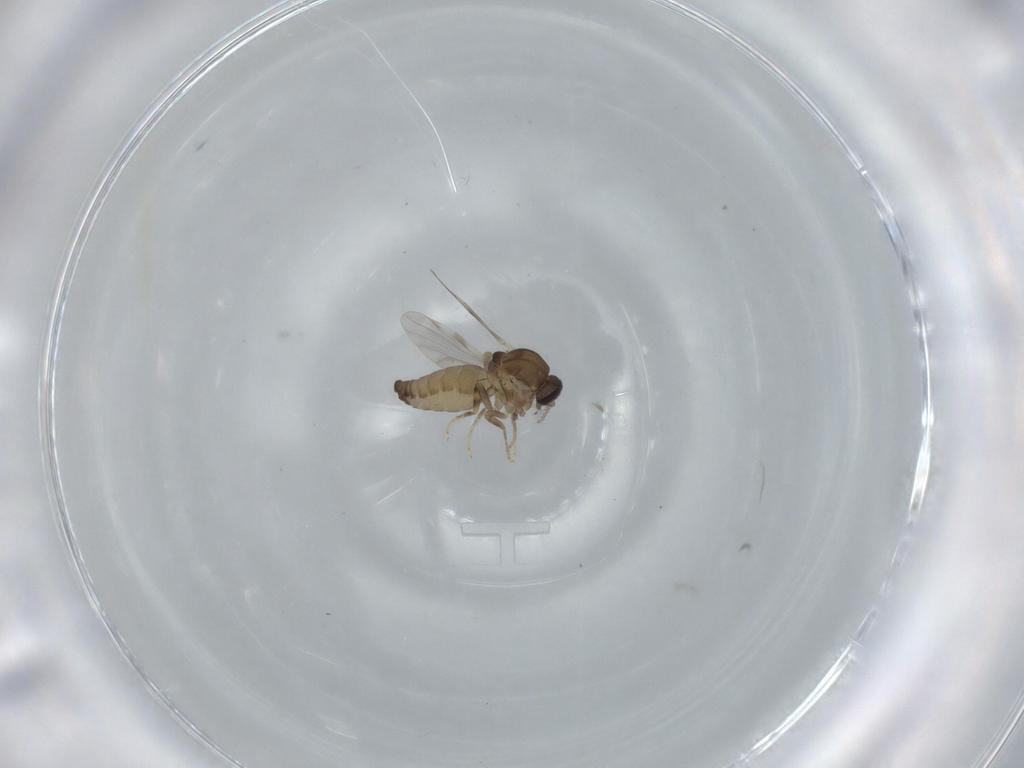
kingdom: Animalia
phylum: Arthropoda
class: Insecta
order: Diptera
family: Ceratopogonidae
